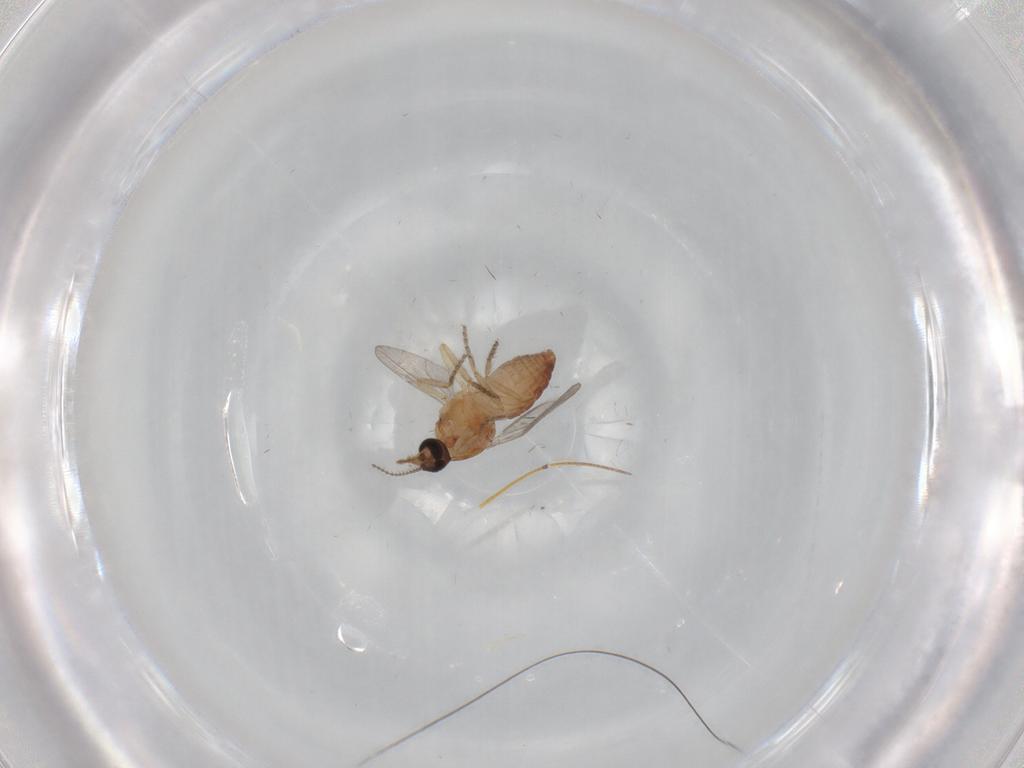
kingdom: Animalia
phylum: Arthropoda
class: Insecta
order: Diptera
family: Ceratopogonidae
